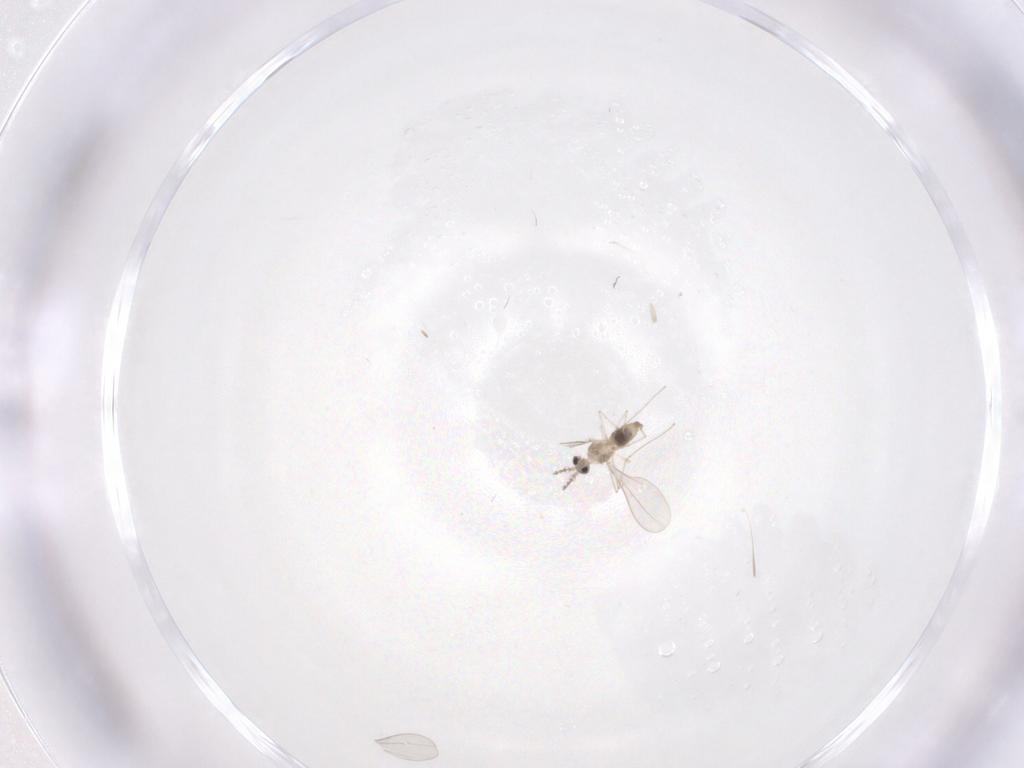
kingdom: Animalia
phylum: Arthropoda
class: Insecta
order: Diptera
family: Cecidomyiidae
